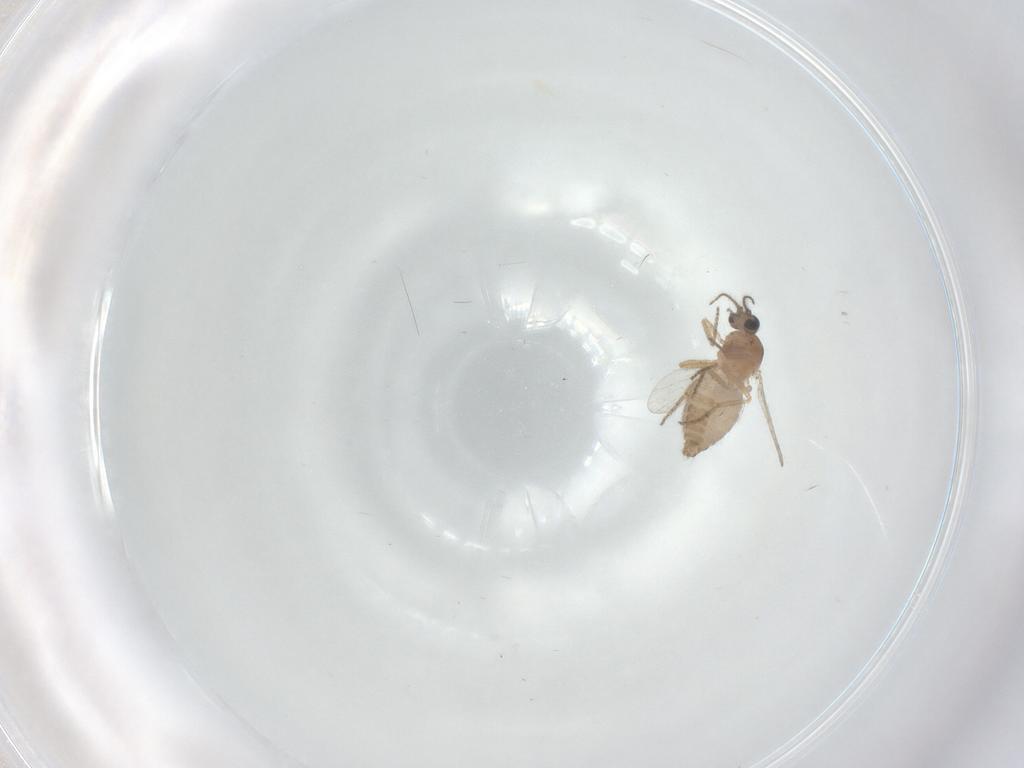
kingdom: Animalia
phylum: Arthropoda
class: Insecta
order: Diptera
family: Ceratopogonidae
